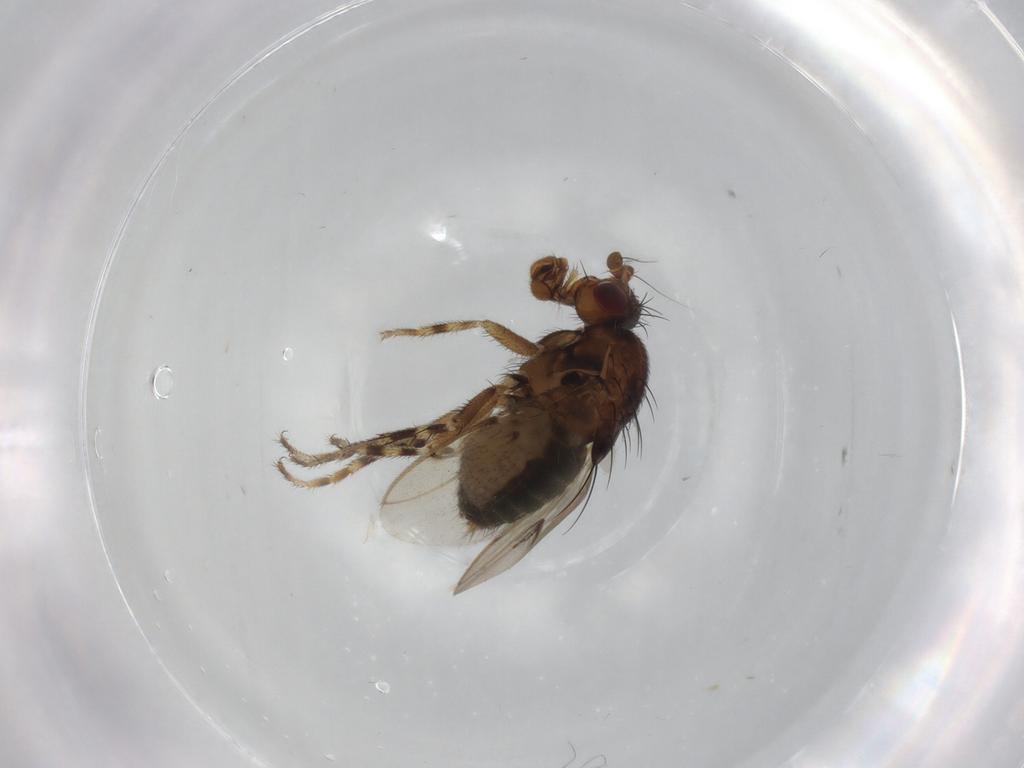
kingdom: Animalia
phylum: Arthropoda
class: Insecta
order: Diptera
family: Sphaeroceridae
